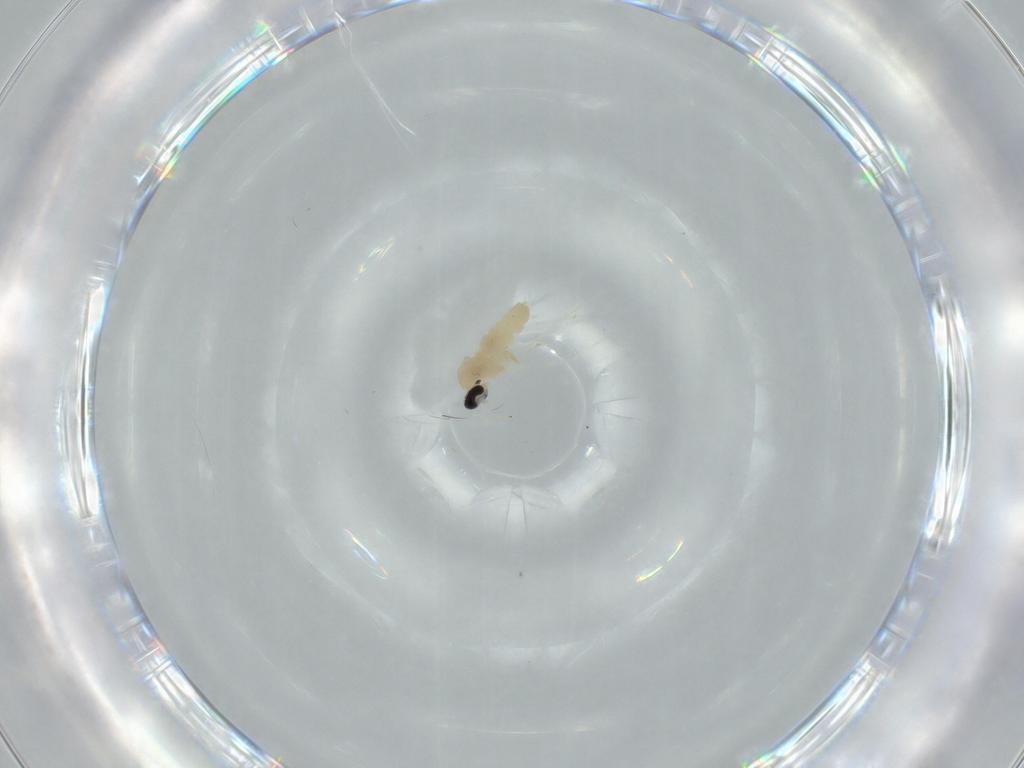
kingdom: Animalia
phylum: Arthropoda
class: Insecta
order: Diptera
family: Cecidomyiidae
